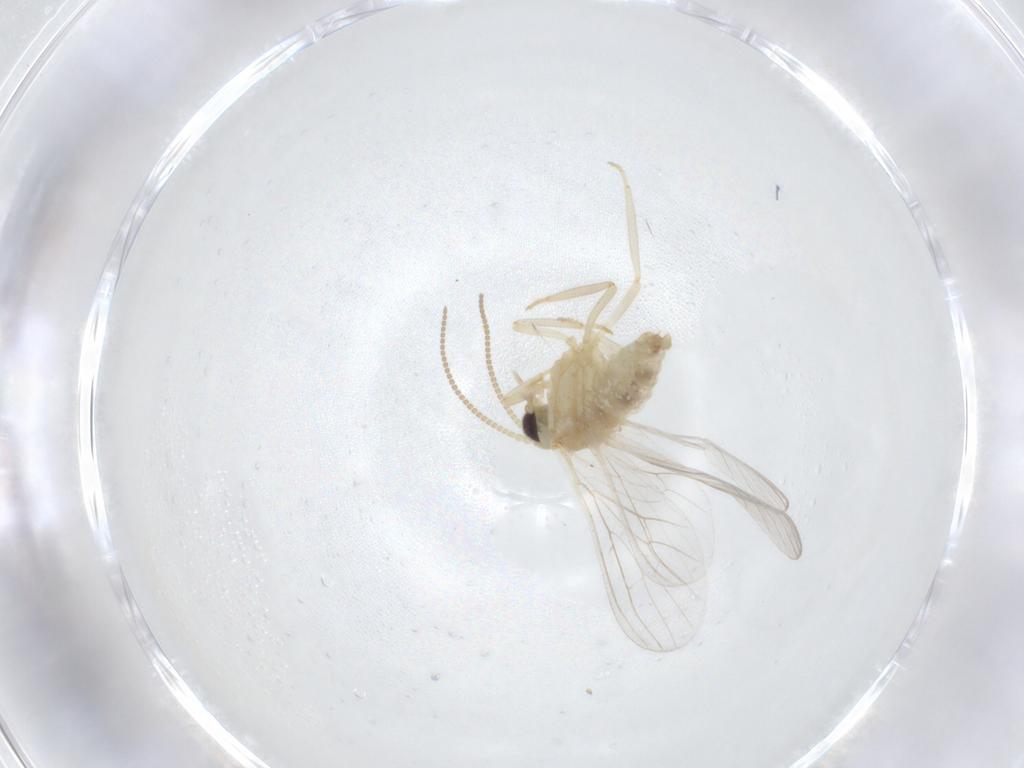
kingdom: Animalia
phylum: Arthropoda
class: Insecta
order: Neuroptera
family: Coniopterygidae
